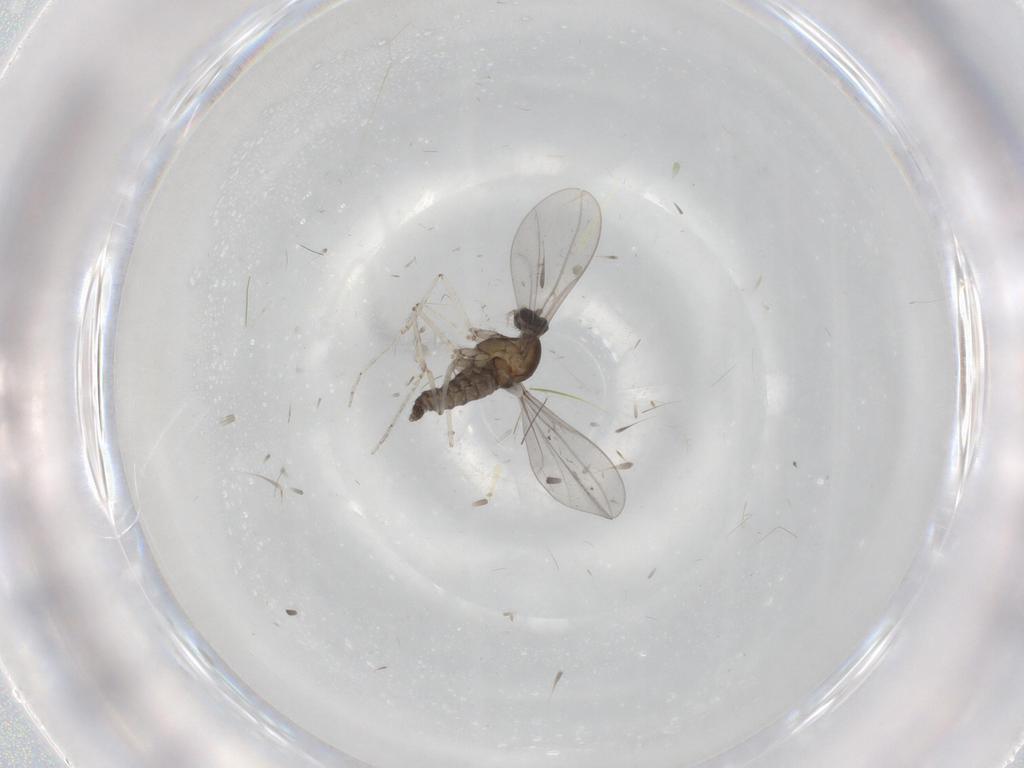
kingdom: Animalia
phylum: Arthropoda
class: Insecta
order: Diptera
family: Cecidomyiidae
